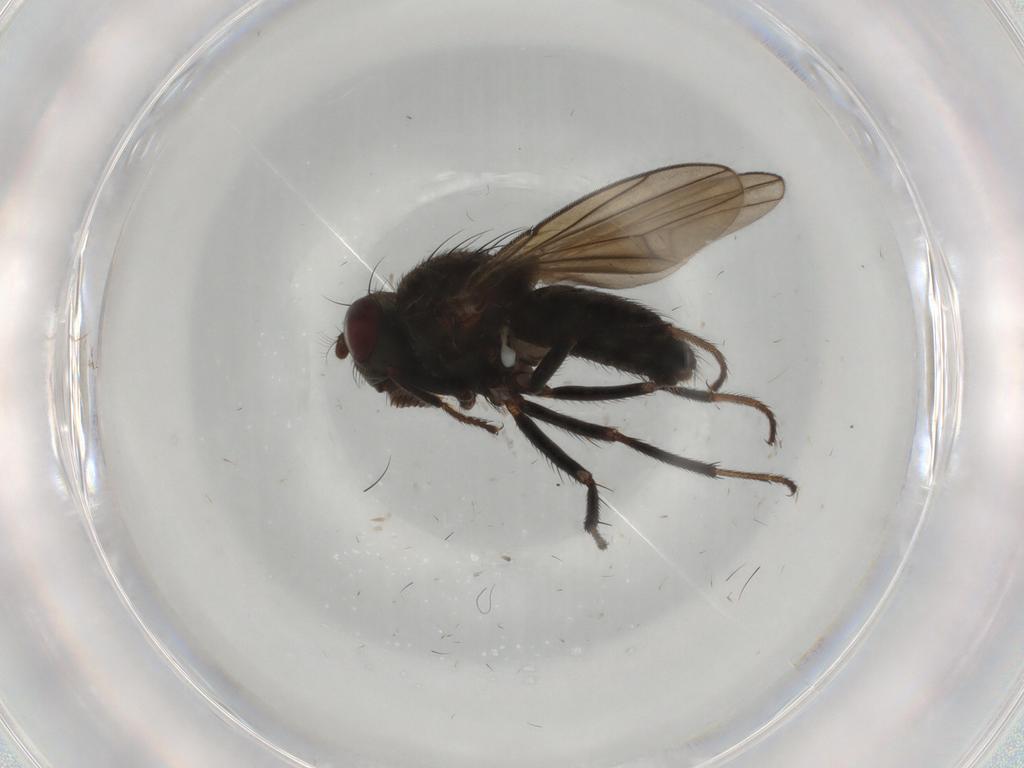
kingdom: Animalia
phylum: Arthropoda
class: Insecta
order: Diptera
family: Ephydridae
